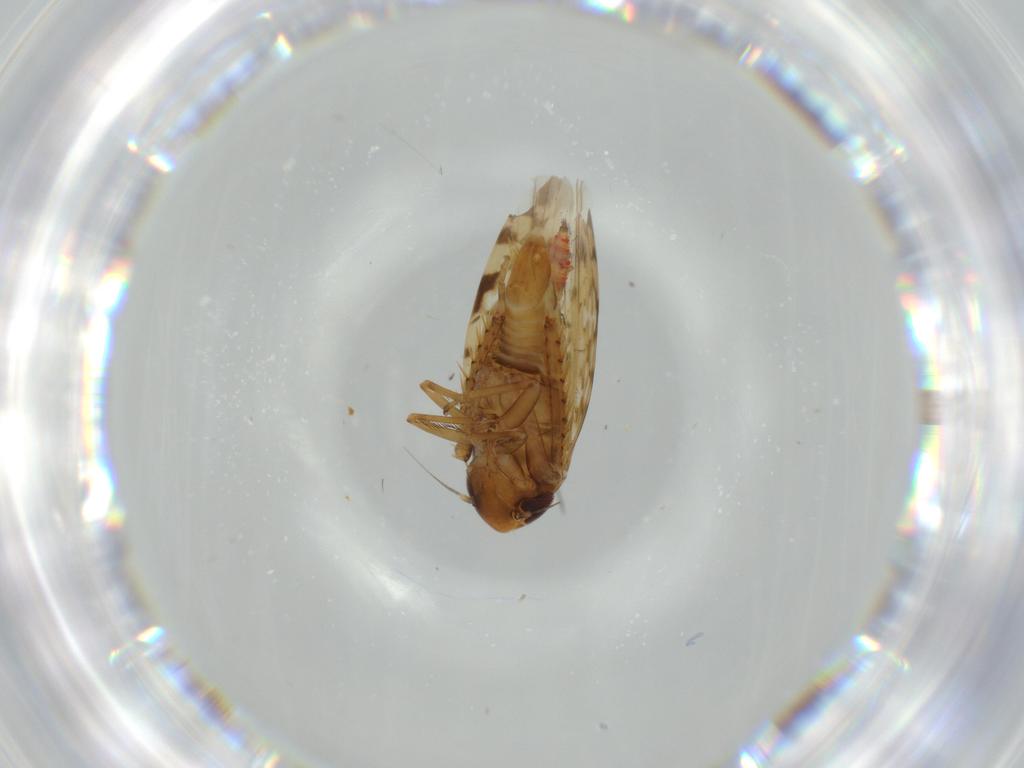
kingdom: Animalia
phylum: Arthropoda
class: Insecta
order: Hemiptera
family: Cicadellidae
